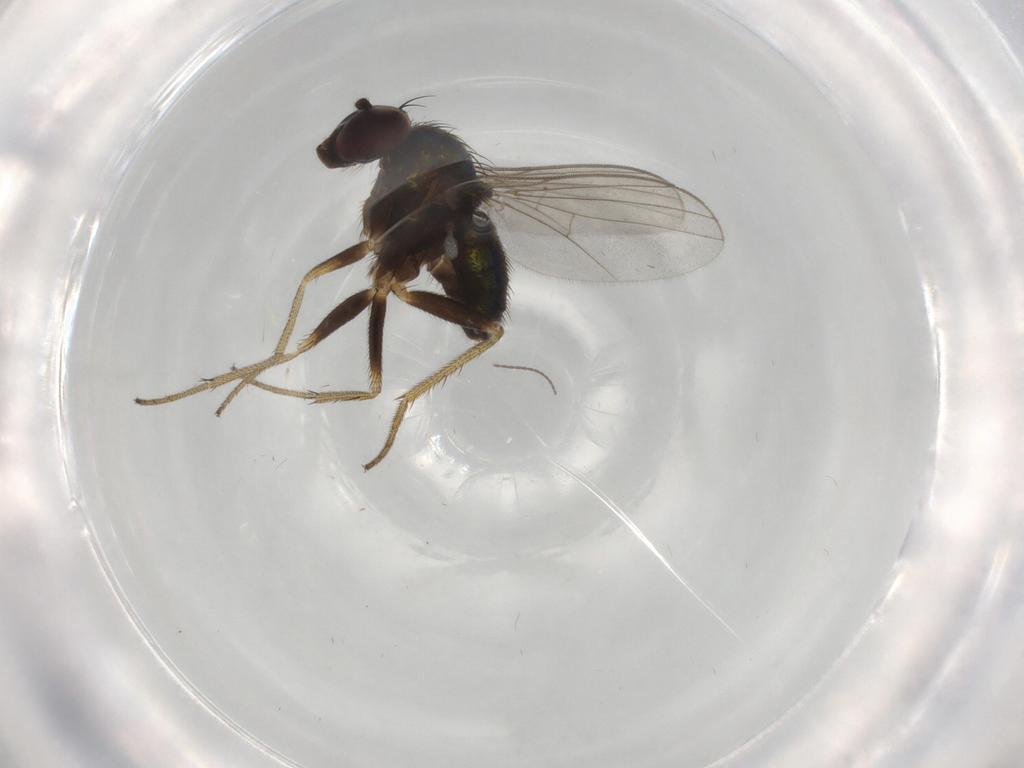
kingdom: Animalia
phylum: Arthropoda
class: Insecta
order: Diptera
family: Cecidomyiidae
